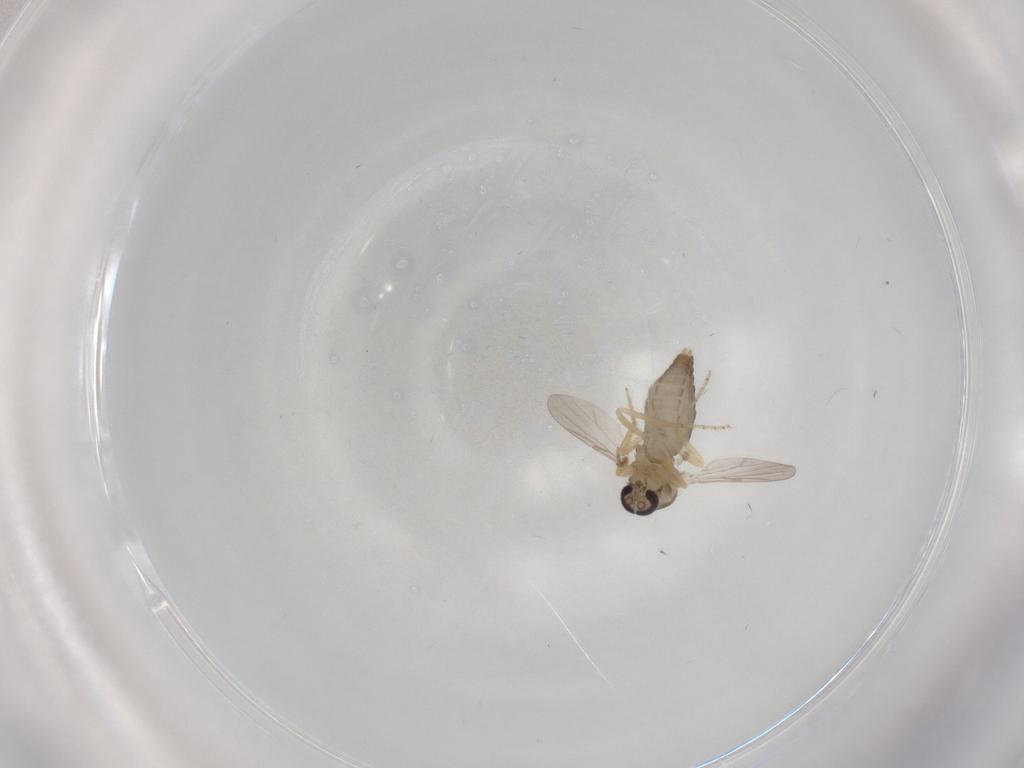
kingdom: Animalia
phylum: Arthropoda
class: Insecta
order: Diptera
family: Ceratopogonidae
